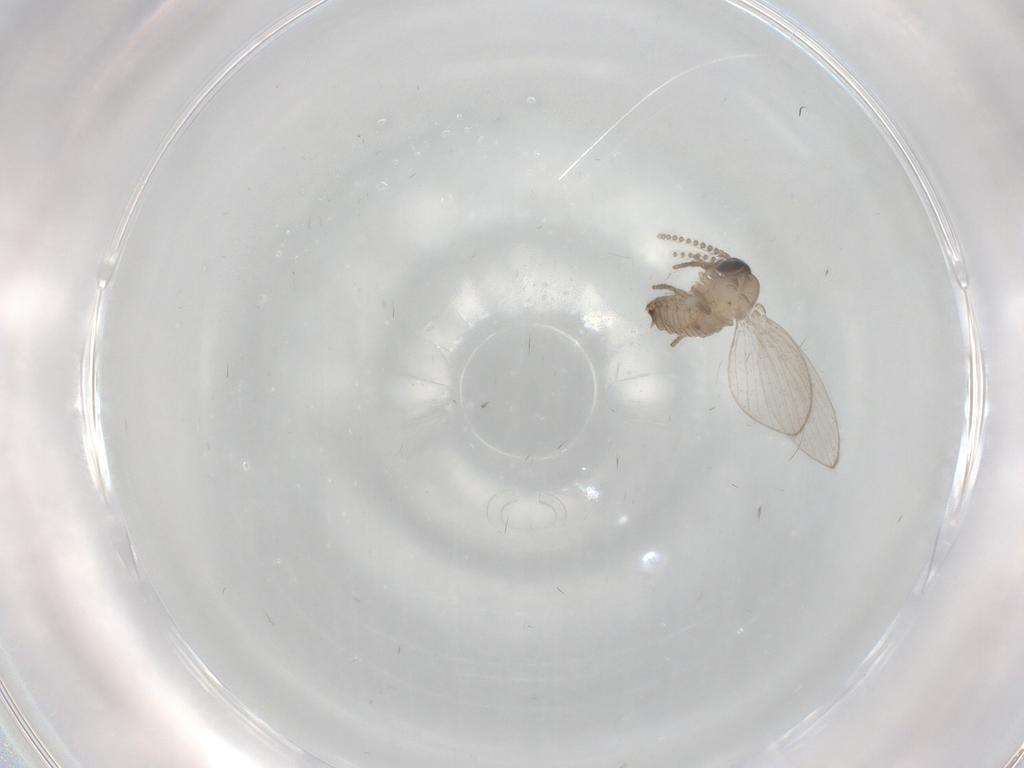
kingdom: Animalia
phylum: Arthropoda
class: Insecta
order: Diptera
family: Psychodidae
